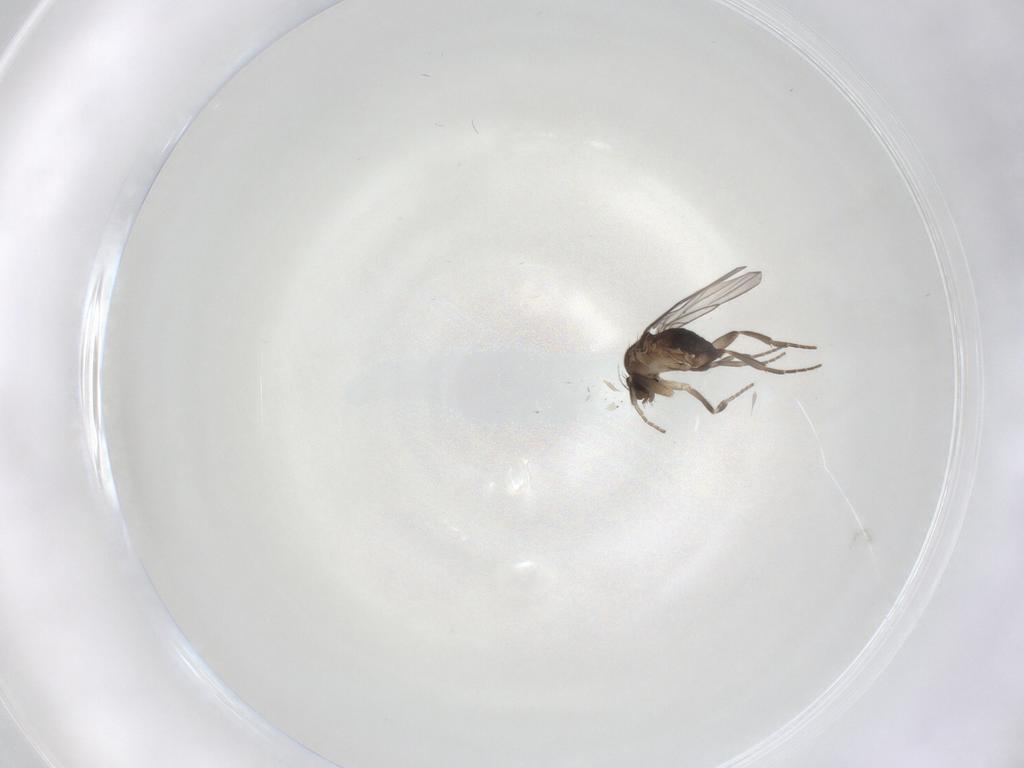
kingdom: Animalia
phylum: Arthropoda
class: Insecta
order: Diptera
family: Phoridae
